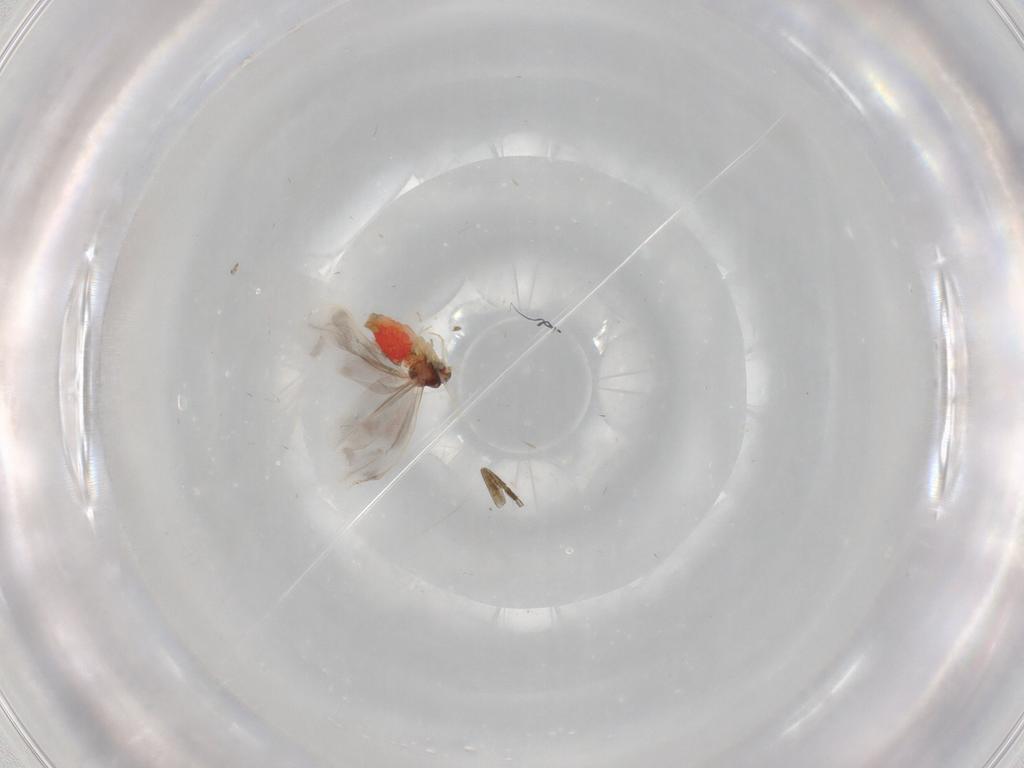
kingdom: Animalia
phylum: Arthropoda
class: Insecta
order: Hemiptera
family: Aleyrodidae
